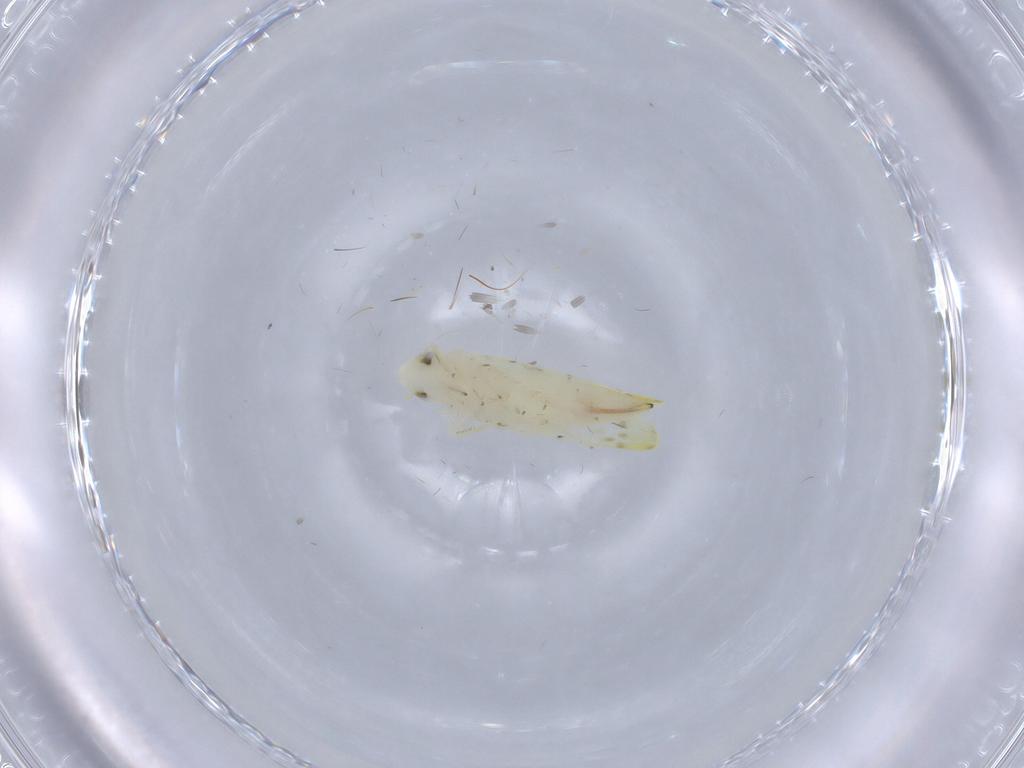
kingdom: Animalia
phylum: Arthropoda
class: Insecta
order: Hemiptera
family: Cicadellidae
